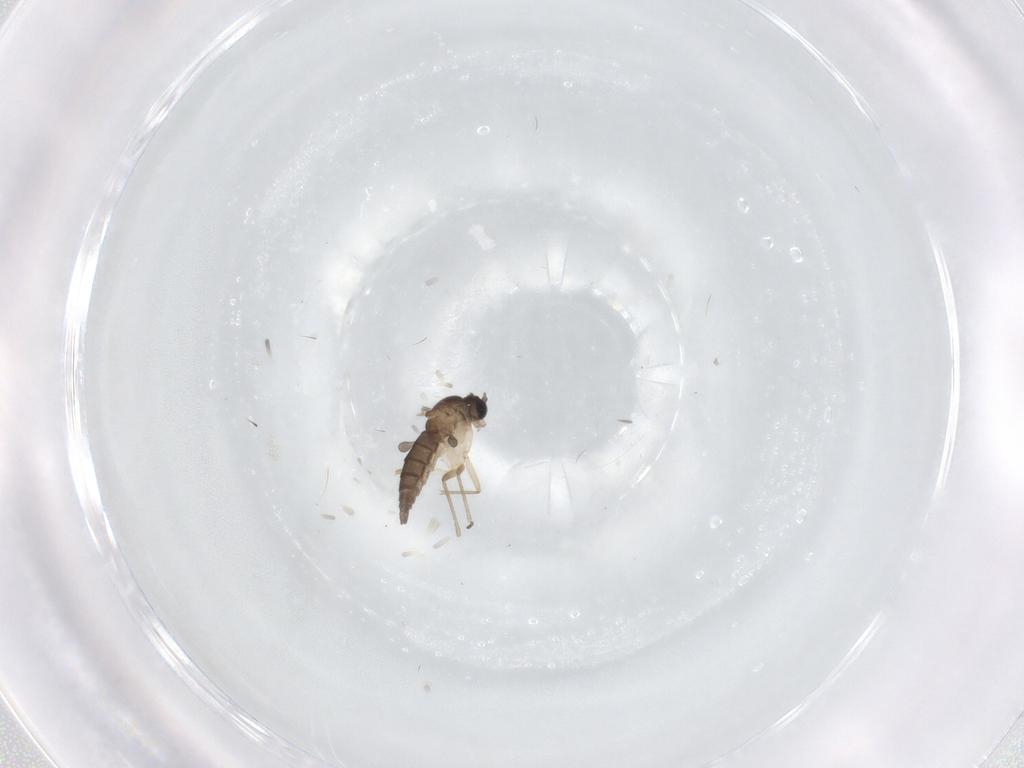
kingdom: Animalia
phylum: Arthropoda
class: Insecta
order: Diptera
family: Sciaridae
